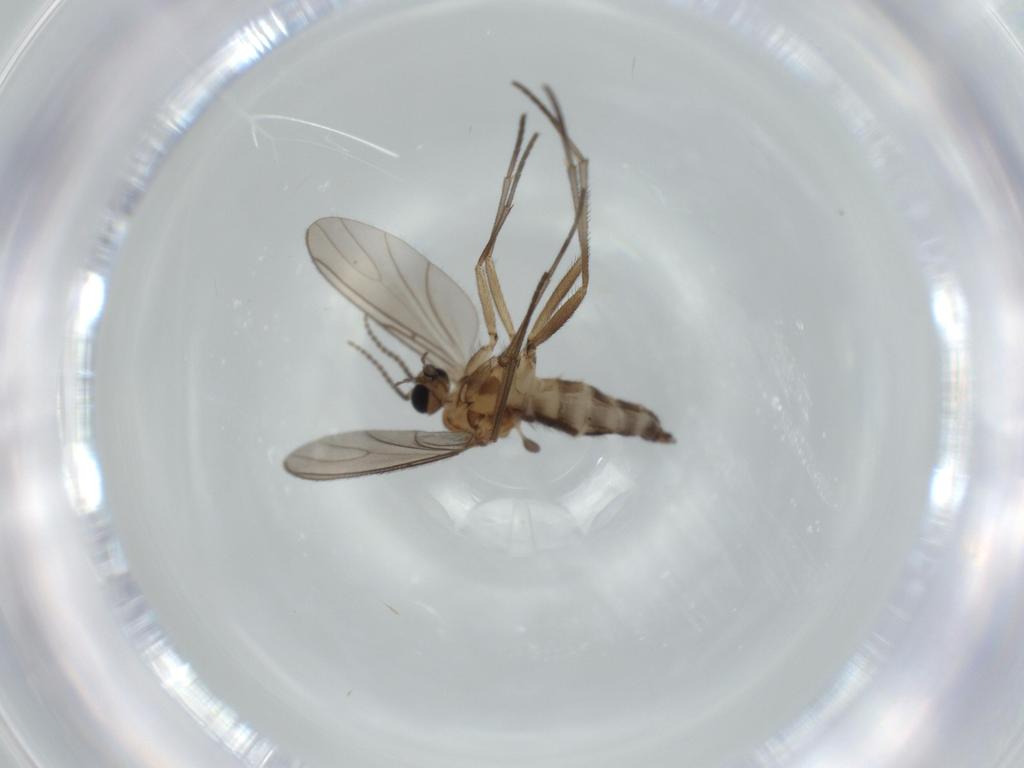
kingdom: Animalia
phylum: Arthropoda
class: Insecta
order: Diptera
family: Sciaridae
